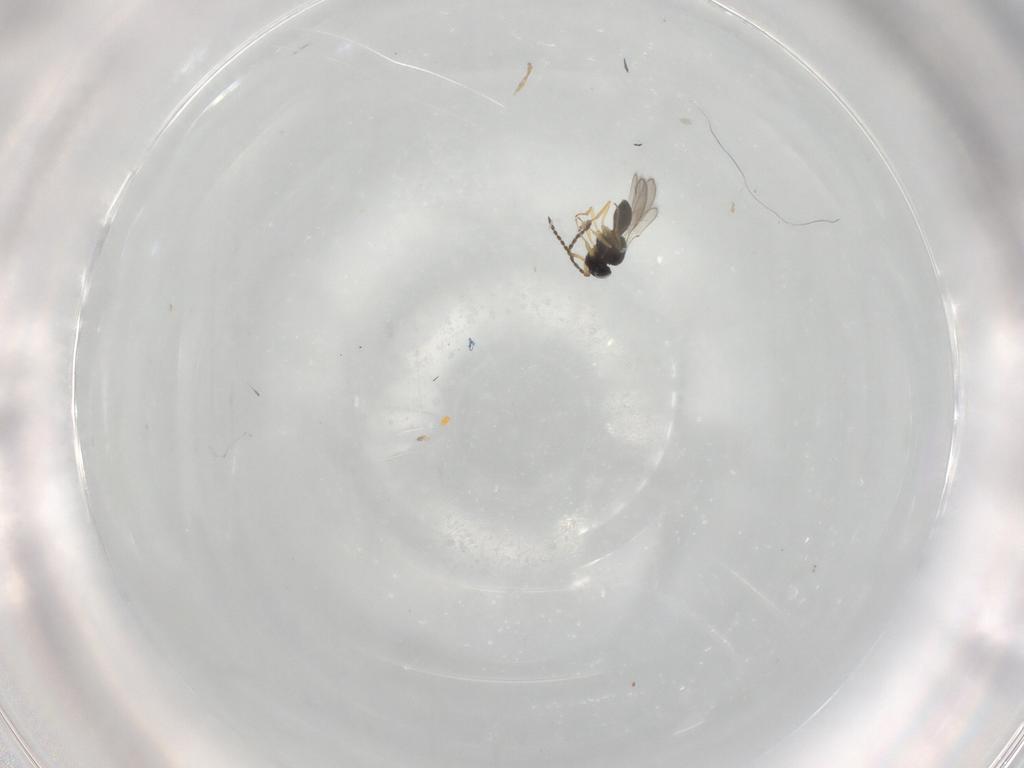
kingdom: Animalia
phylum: Arthropoda
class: Insecta
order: Hymenoptera
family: Scelionidae
